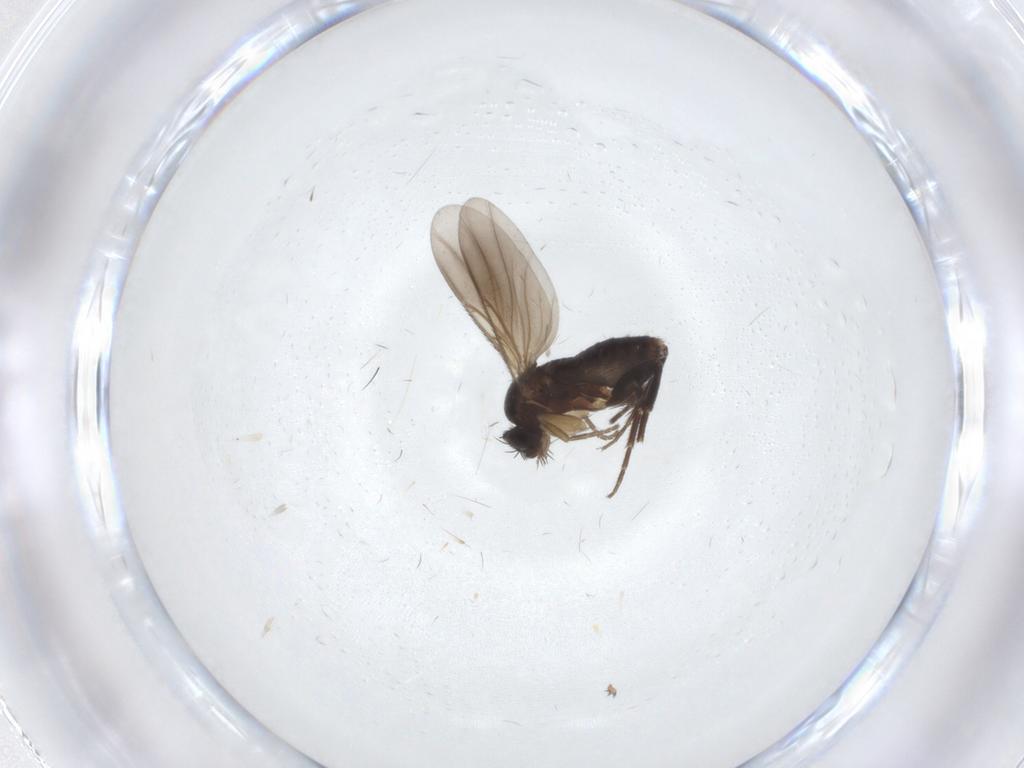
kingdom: Animalia
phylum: Arthropoda
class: Insecta
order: Diptera
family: Phoridae
